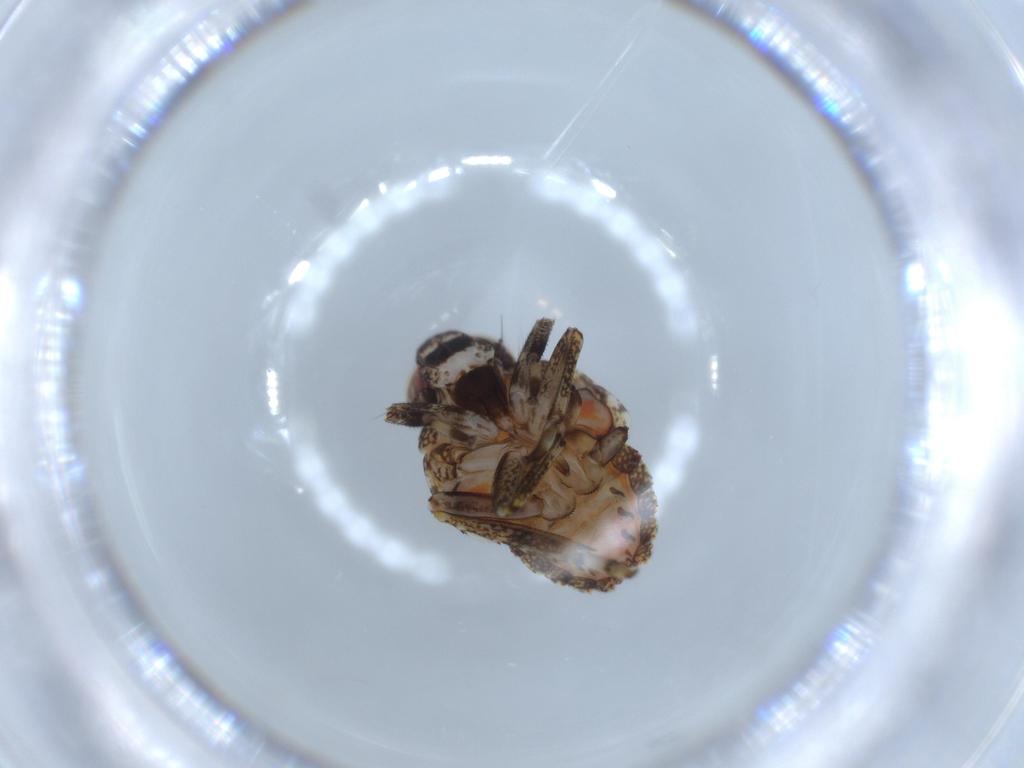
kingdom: Animalia
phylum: Arthropoda
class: Insecta
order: Hemiptera
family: Issidae
